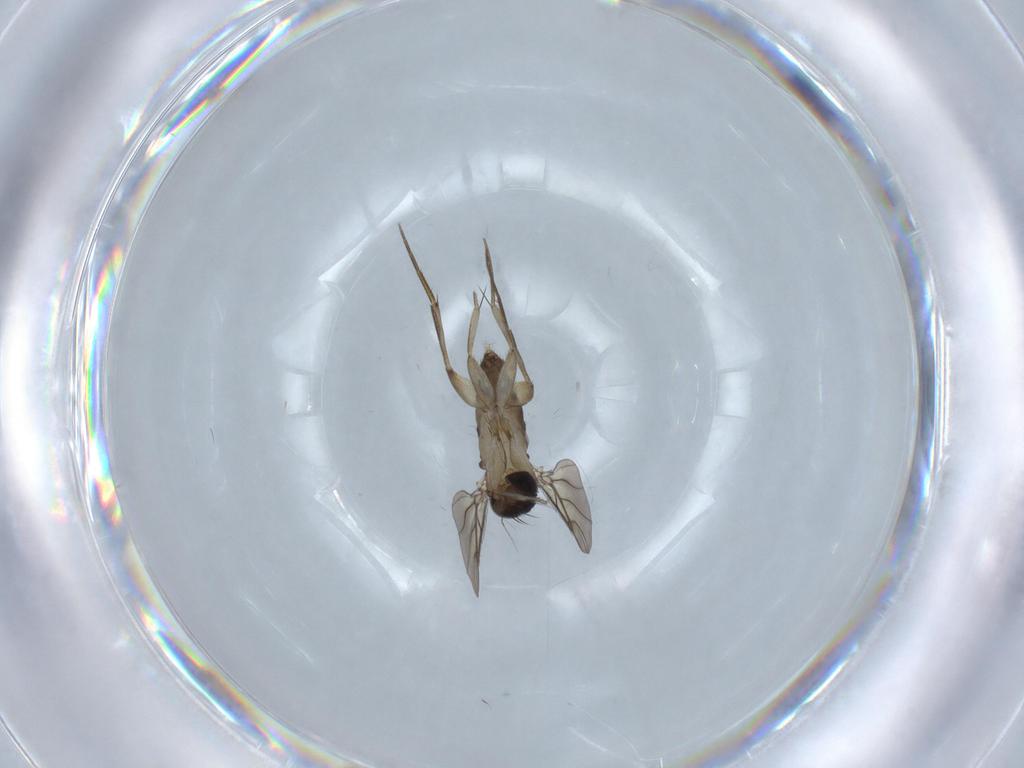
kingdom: Animalia
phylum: Arthropoda
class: Insecta
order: Diptera
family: Phoridae
